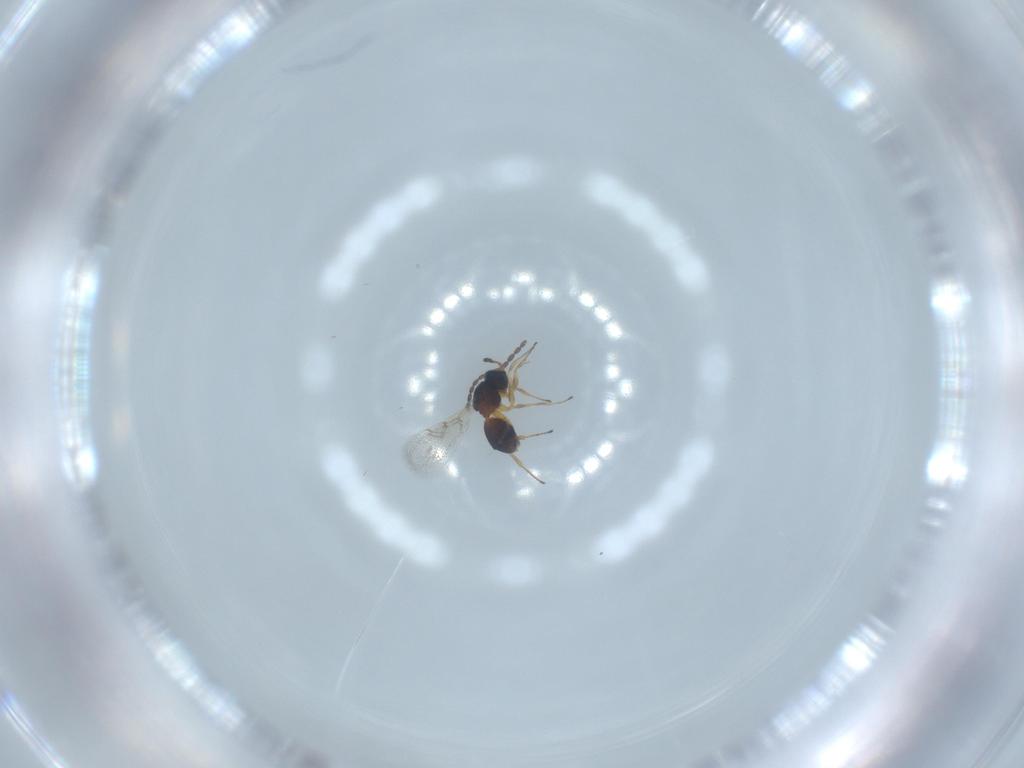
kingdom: Animalia
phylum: Arthropoda
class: Insecta
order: Hymenoptera
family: Figitidae
